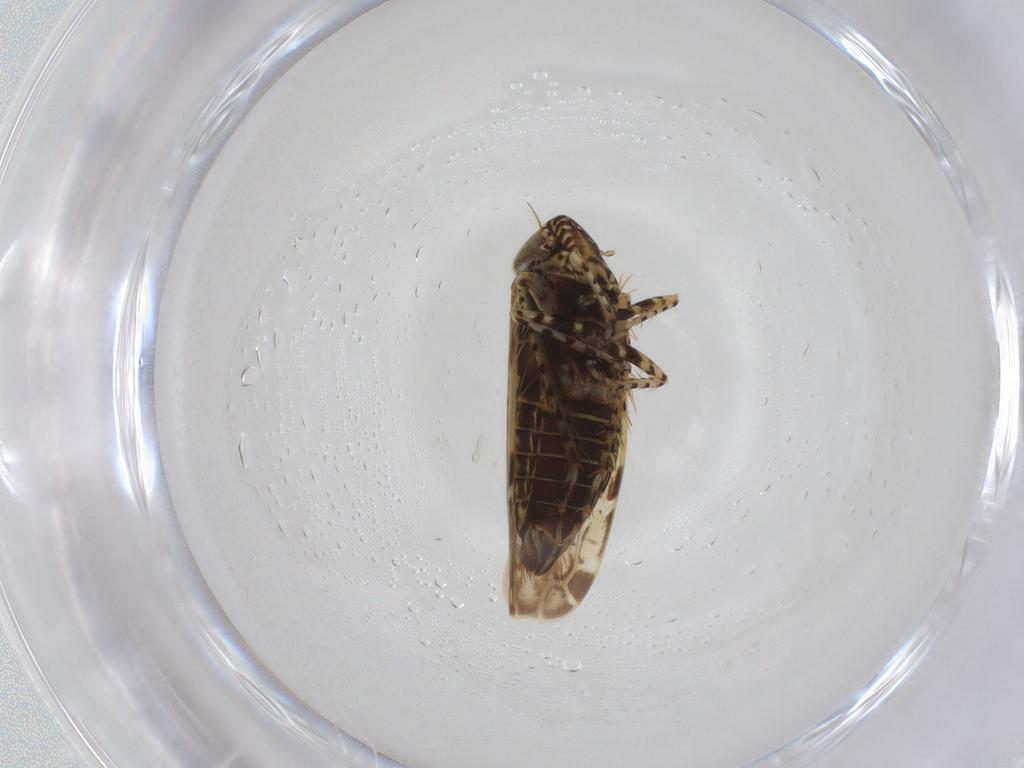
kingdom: Animalia
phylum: Arthropoda
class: Insecta
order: Hemiptera
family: Cicadellidae
